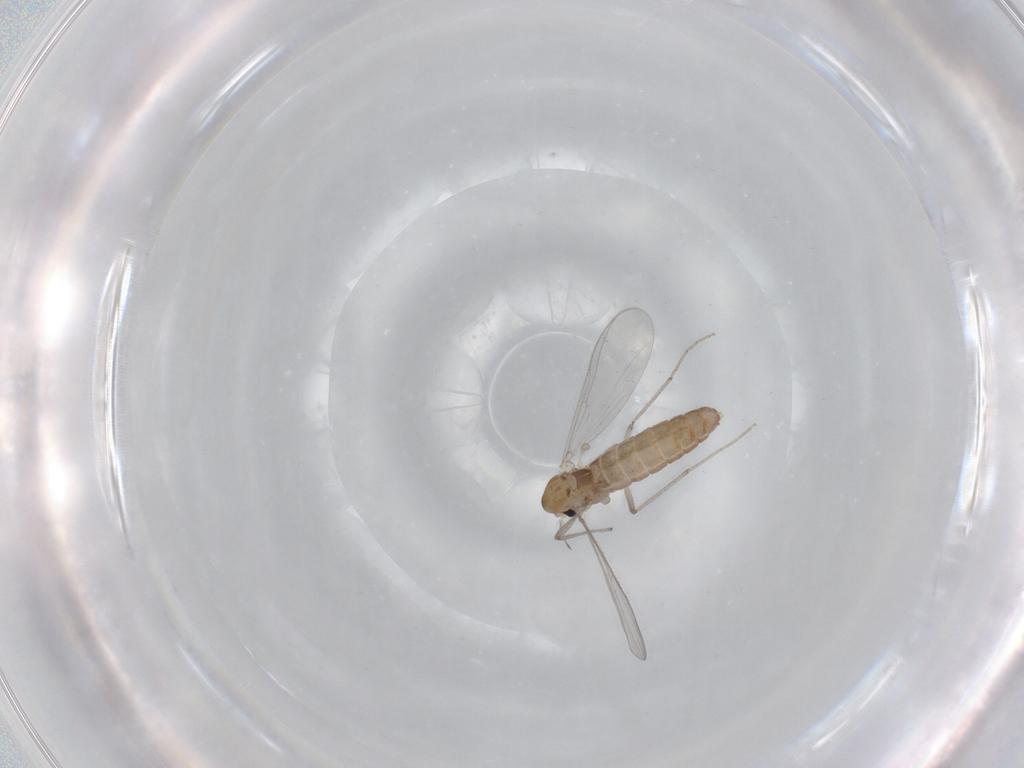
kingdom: Animalia
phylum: Arthropoda
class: Insecta
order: Diptera
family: Chironomidae
